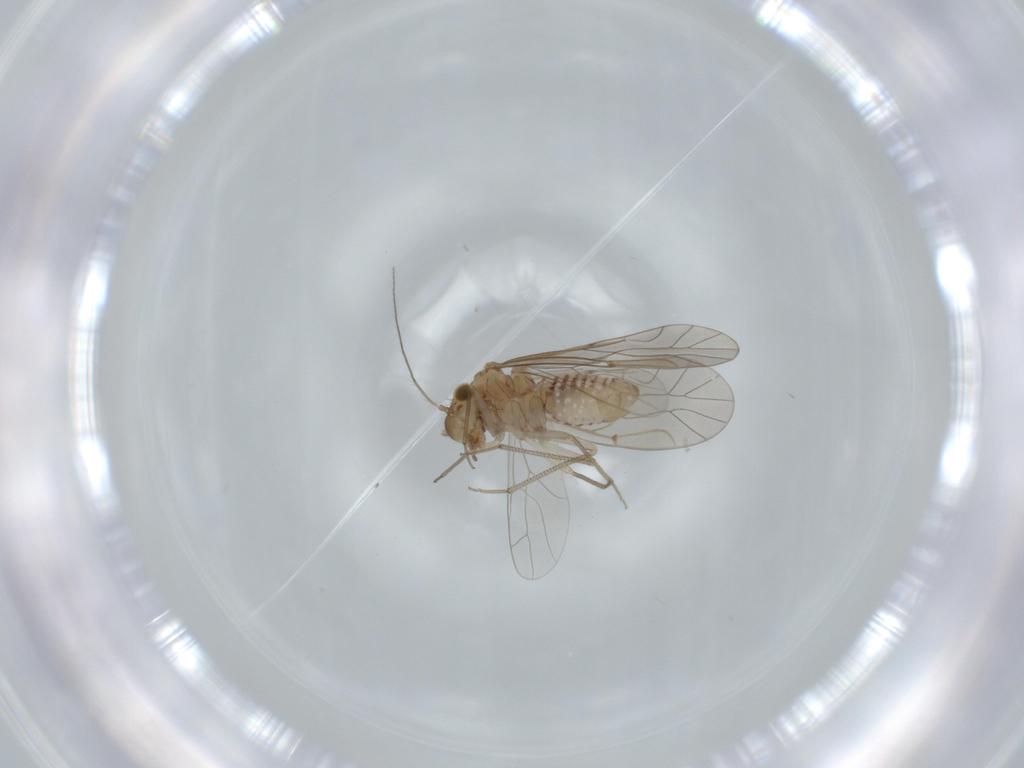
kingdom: Animalia
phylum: Arthropoda
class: Insecta
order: Psocodea
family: Lachesillidae
